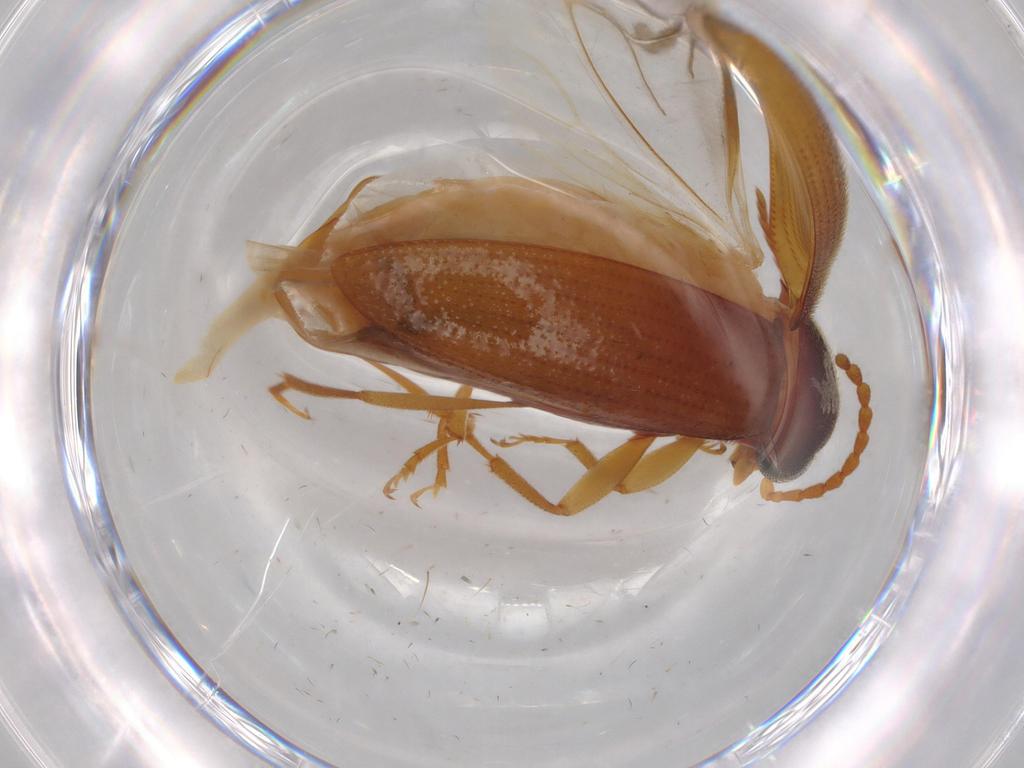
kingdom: Animalia
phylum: Arthropoda
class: Insecta
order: Coleoptera
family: Tenebrionidae
